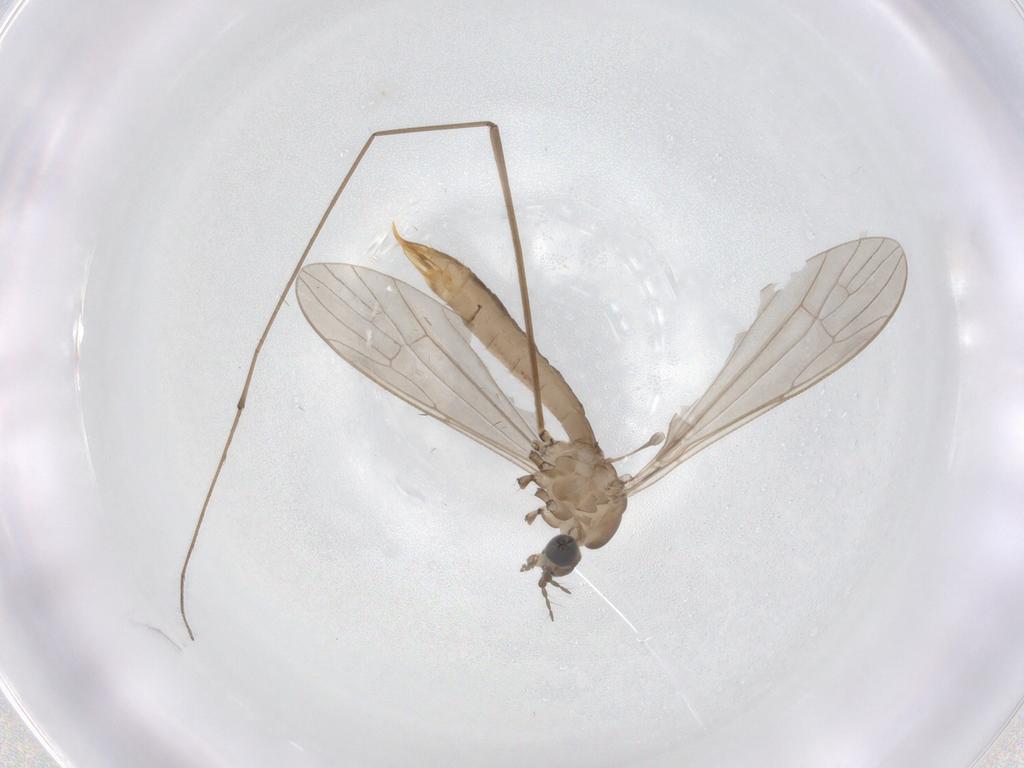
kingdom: Animalia
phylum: Arthropoda
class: Insecta
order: Diptera
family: Limoniidae
